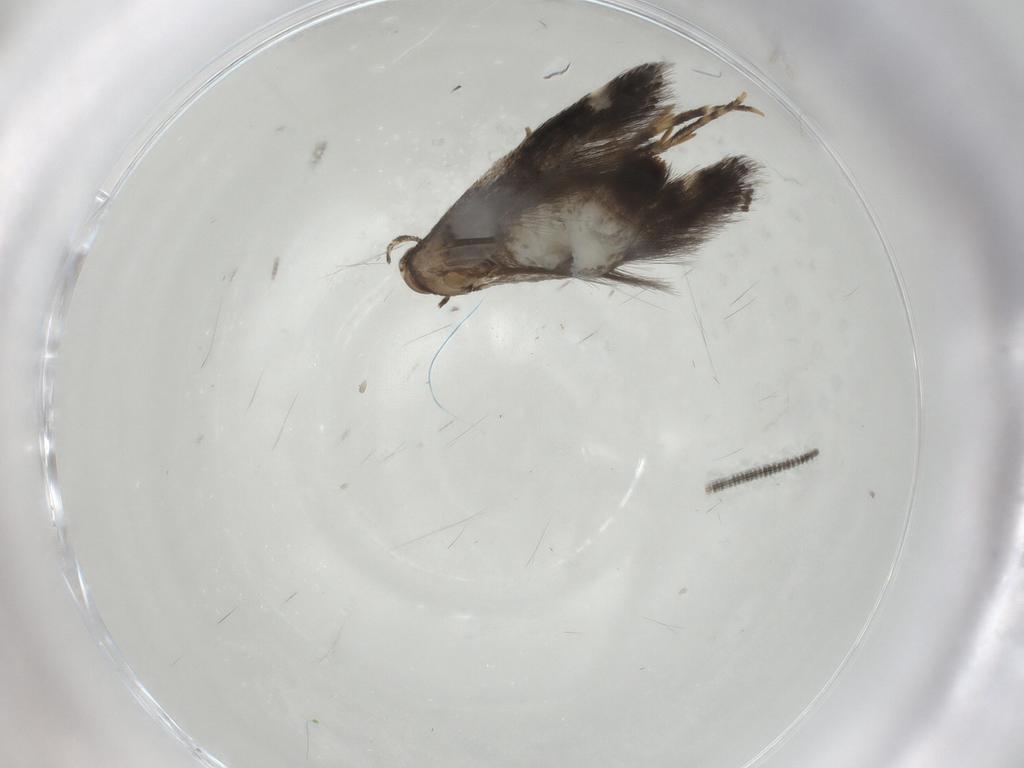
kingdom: Animalia
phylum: Arthropoda
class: Insecta
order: Lepidoptera
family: Elachistidae
